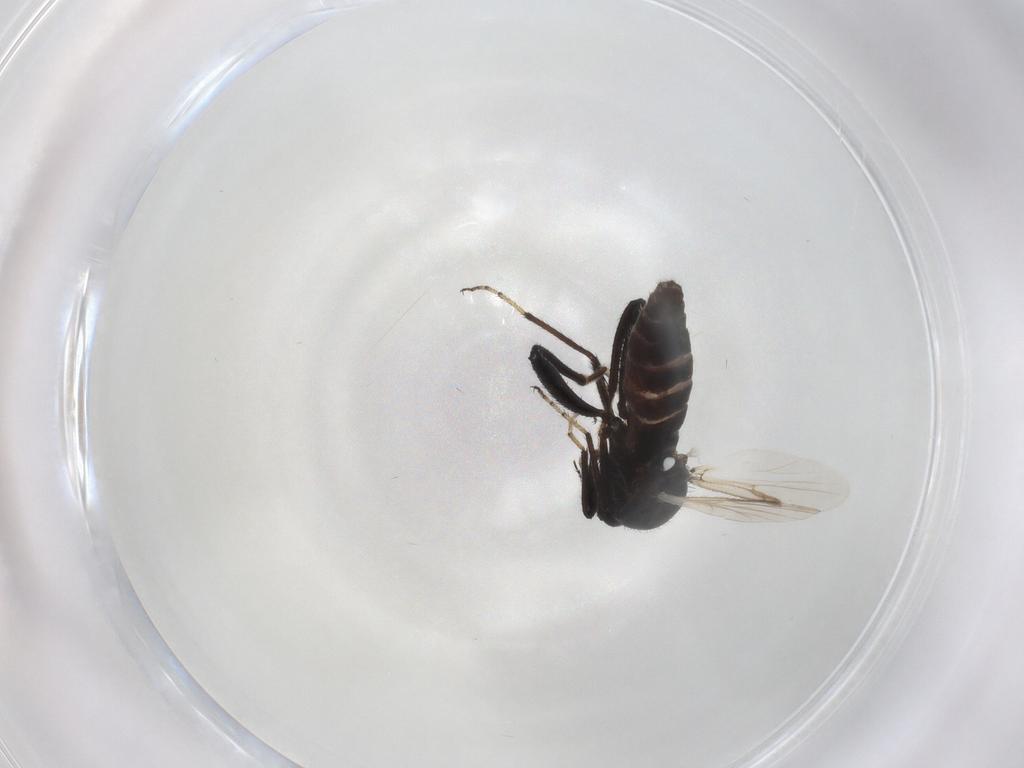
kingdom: Animalia
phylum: Arthropoda
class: Insecta
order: Diptera
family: Ceratopogonidae
